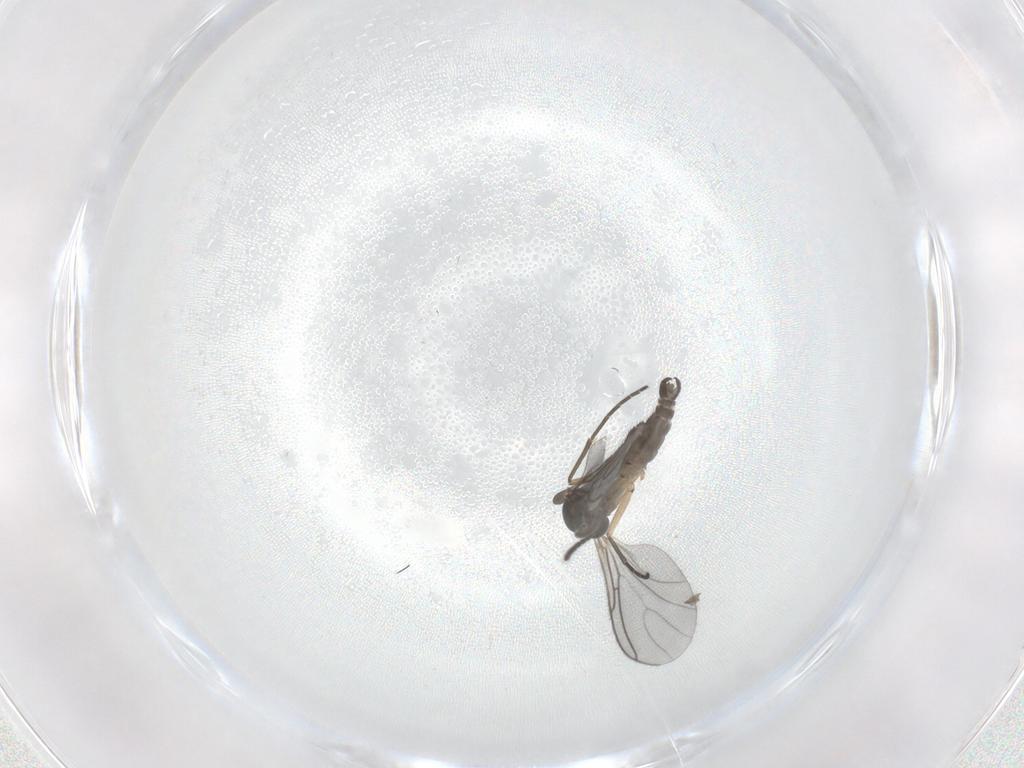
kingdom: Animalia
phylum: Arthropoda
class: Insecta
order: Diptera
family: Sciaridae
